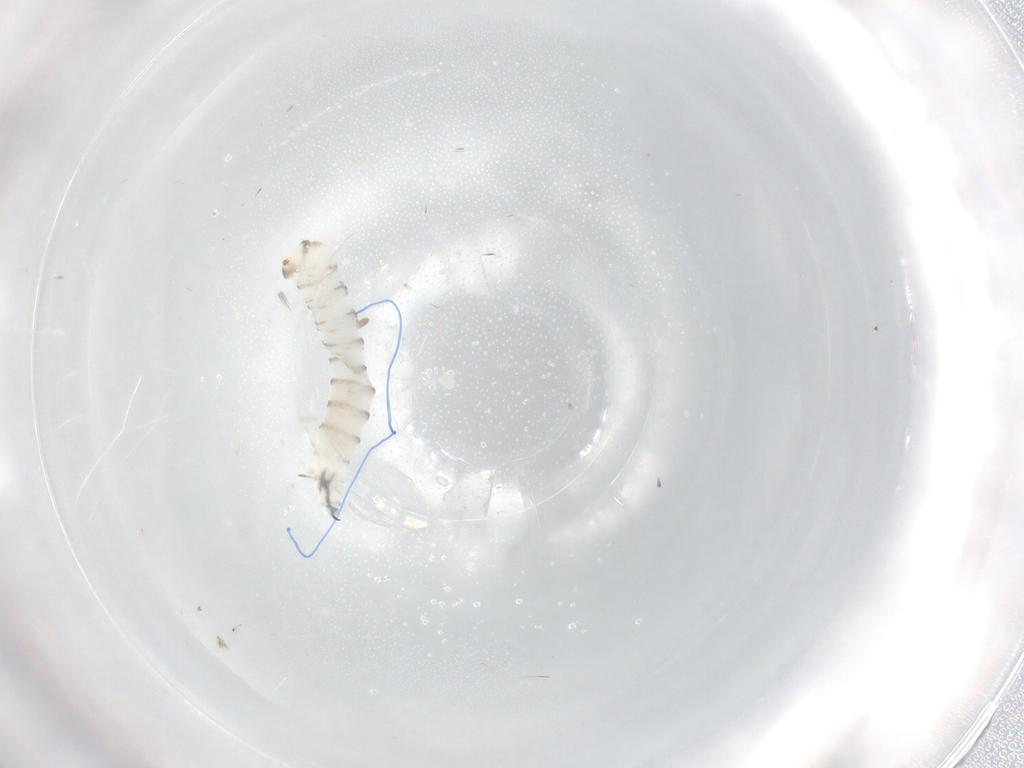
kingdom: Animalia
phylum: Arthropoda
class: Insecta
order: Diptera
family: Sarcophagidae
